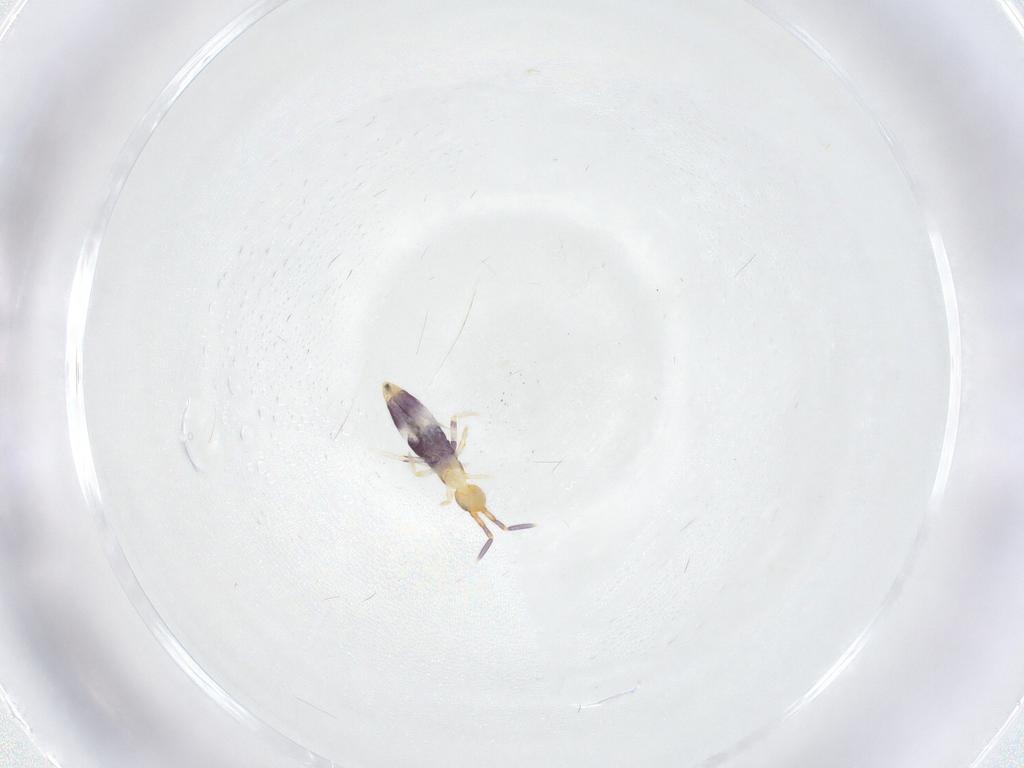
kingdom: Animalia
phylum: Arthropoda
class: Collembola
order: Entomobryomorpha
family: Entomobryidae
